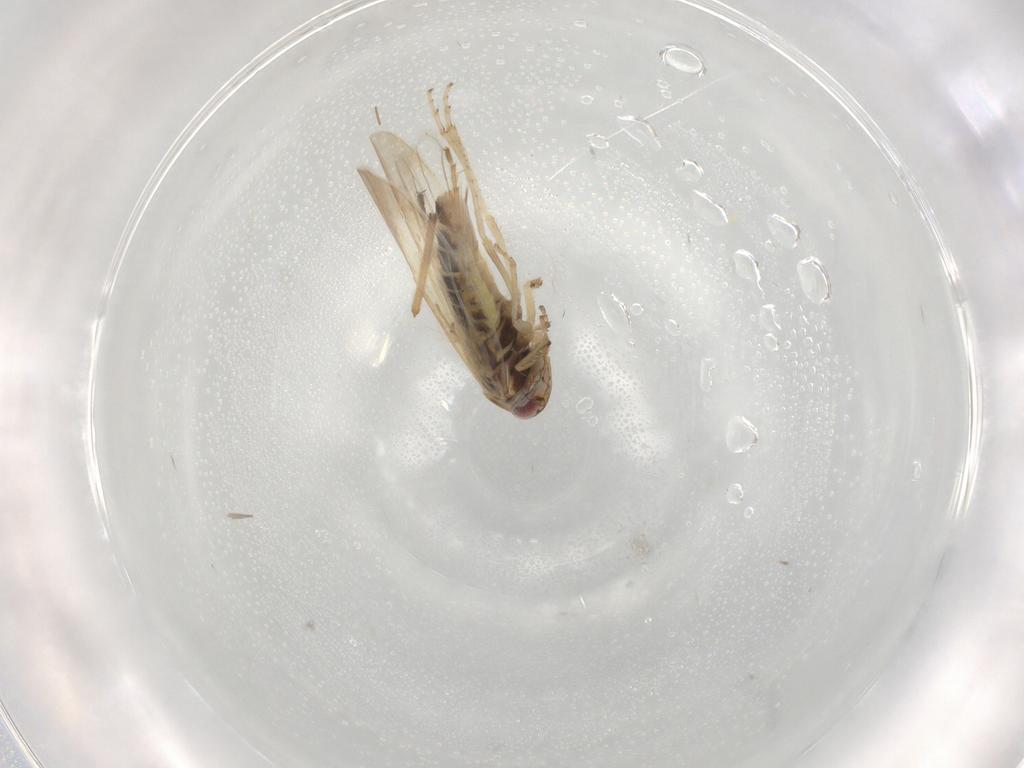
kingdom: Animalia
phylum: Arthropoda
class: Insecta
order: Hemiptera
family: Cicadellidae
